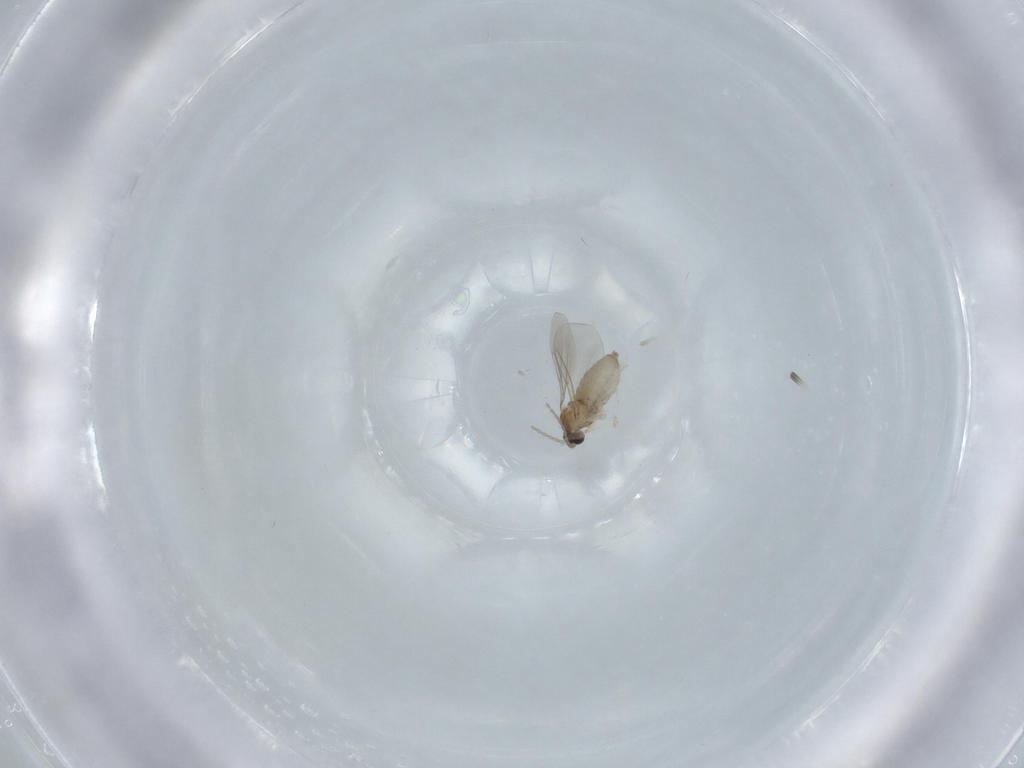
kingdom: Animalia
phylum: Arthropoda
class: Insecta
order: Diptera
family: Cecidomyiidae
